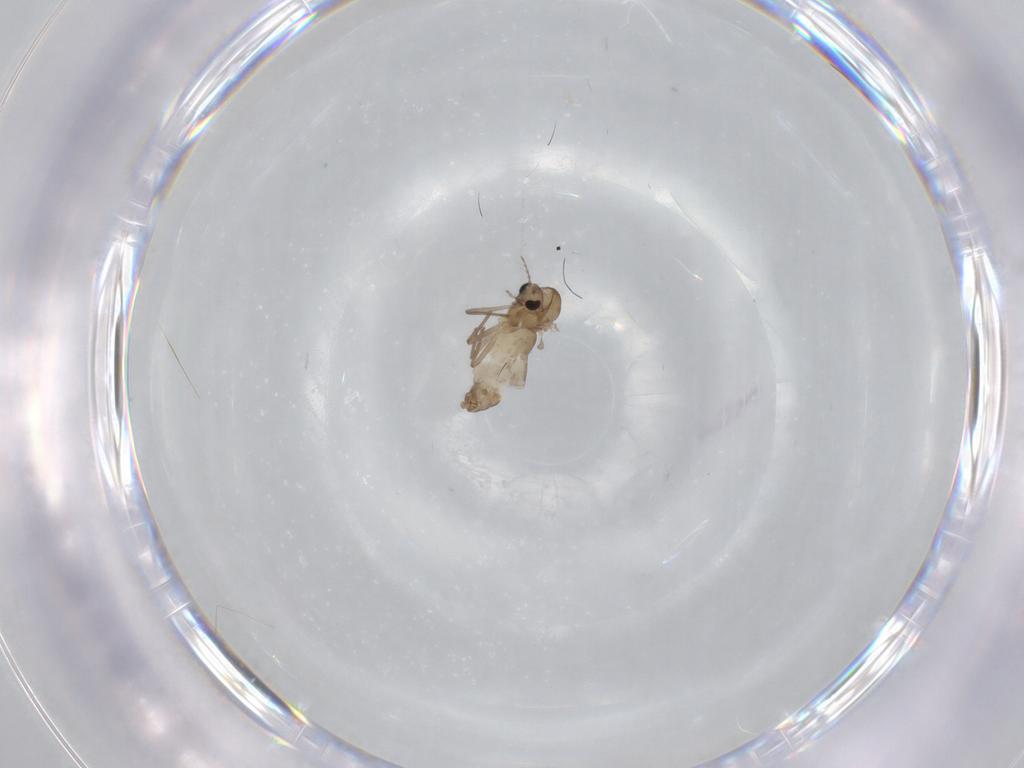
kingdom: Animalia
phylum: Arthropoda
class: Insecta
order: Diptera
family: Chironomidae
